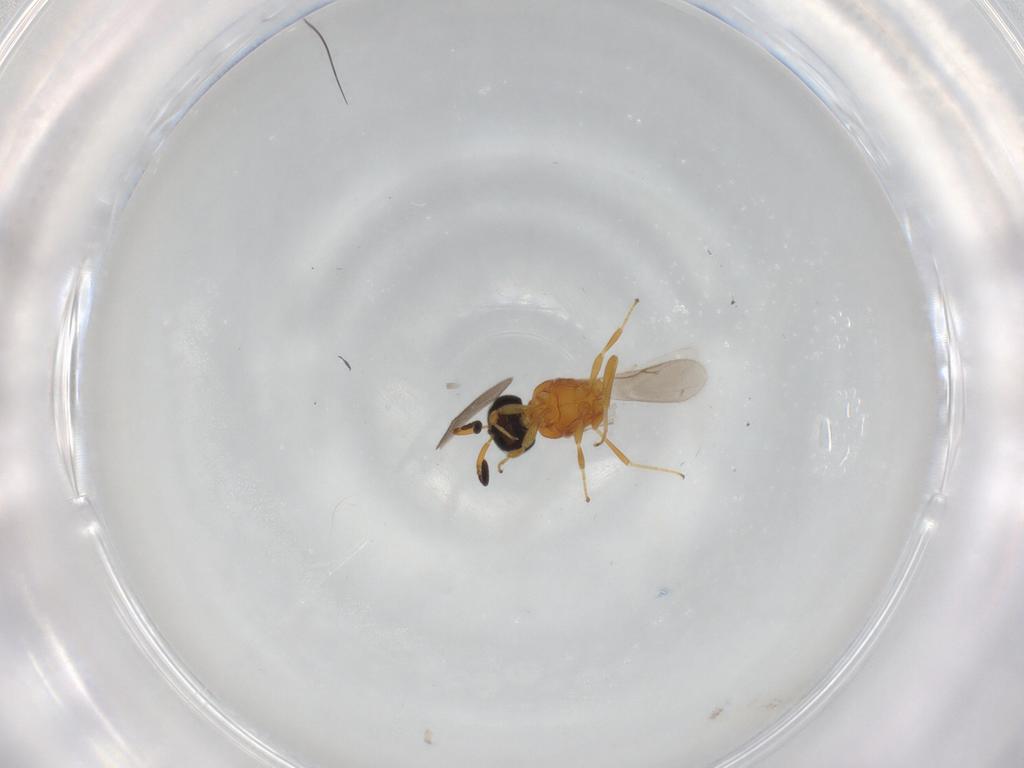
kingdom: Animalia
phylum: Arthropoda
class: Insecta
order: Hymenoptera
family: Scelionidae
